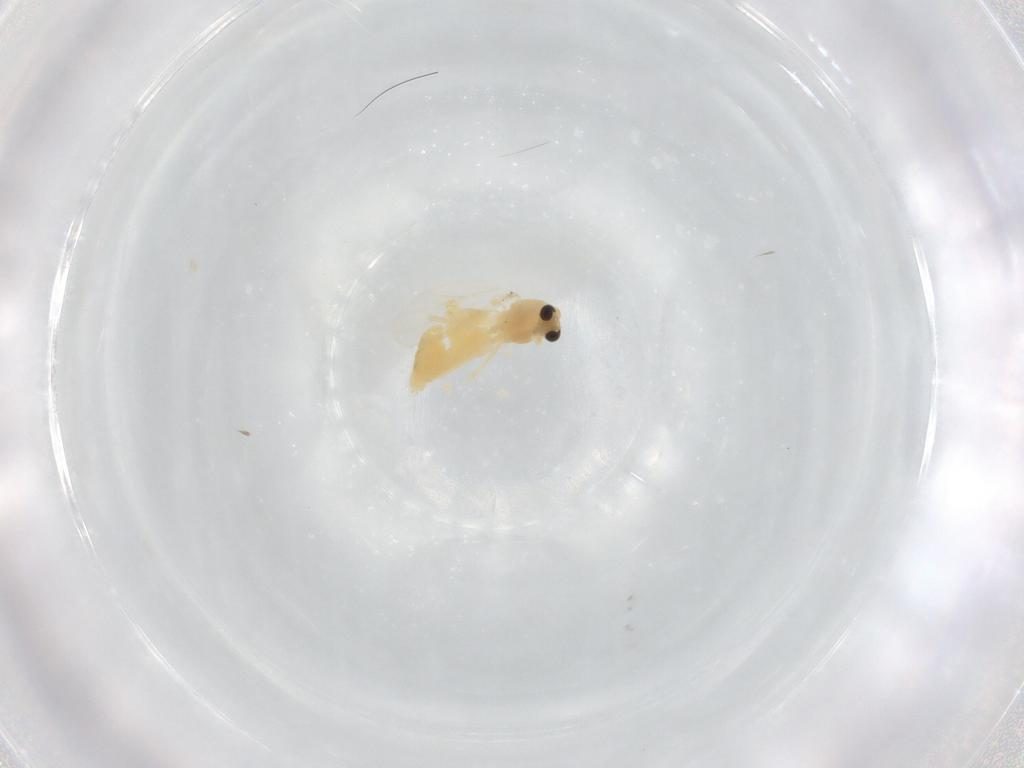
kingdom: Animalia
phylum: Arthropoda
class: Insecta
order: Diptera
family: Chironomidae
